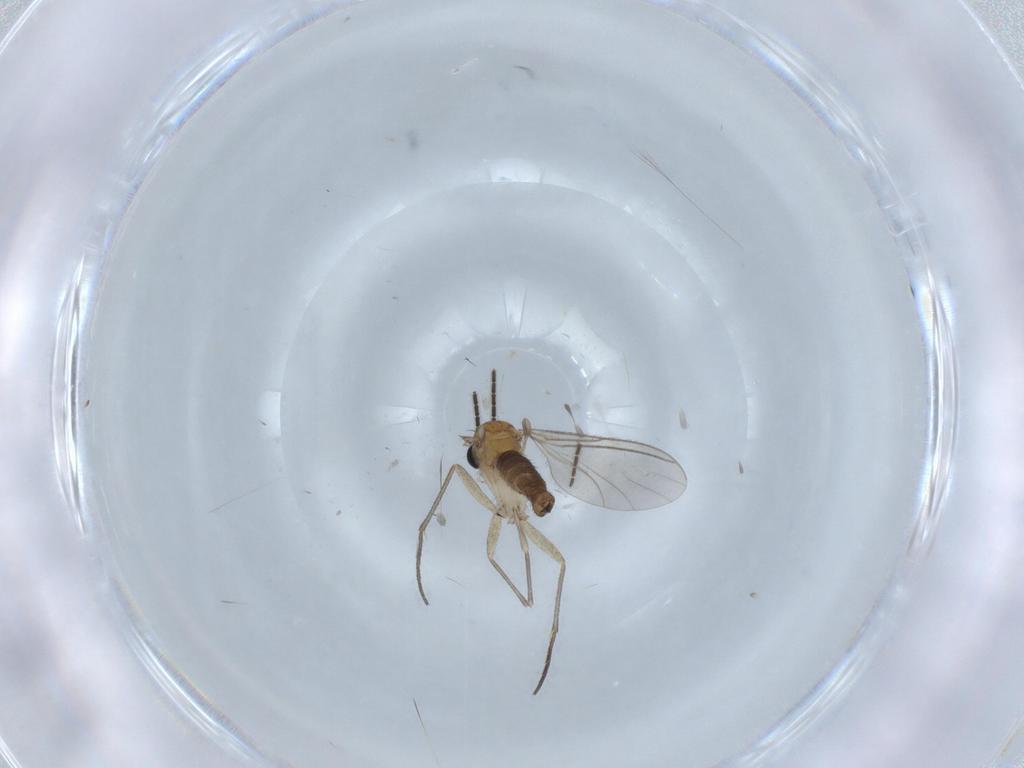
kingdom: Animalia
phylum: Arthropoda
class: Insecta
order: Diptera
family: Sciaridae
